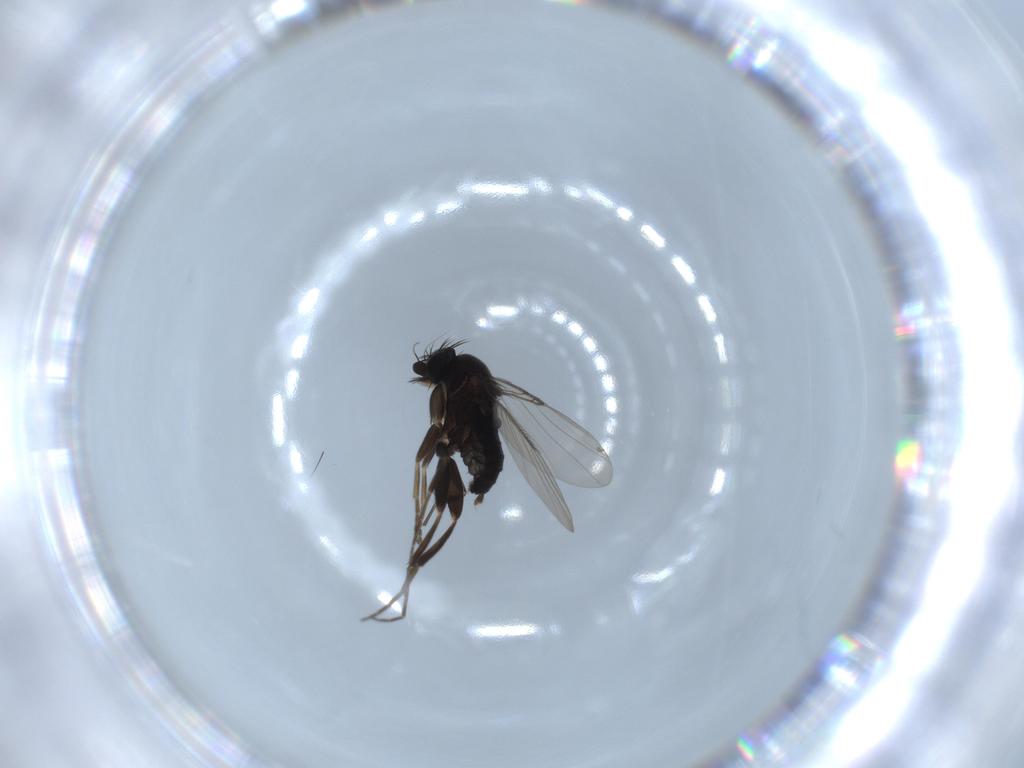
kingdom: Animalia
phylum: Arthropoda
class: Insecta
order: Diptera
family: Phoridae
